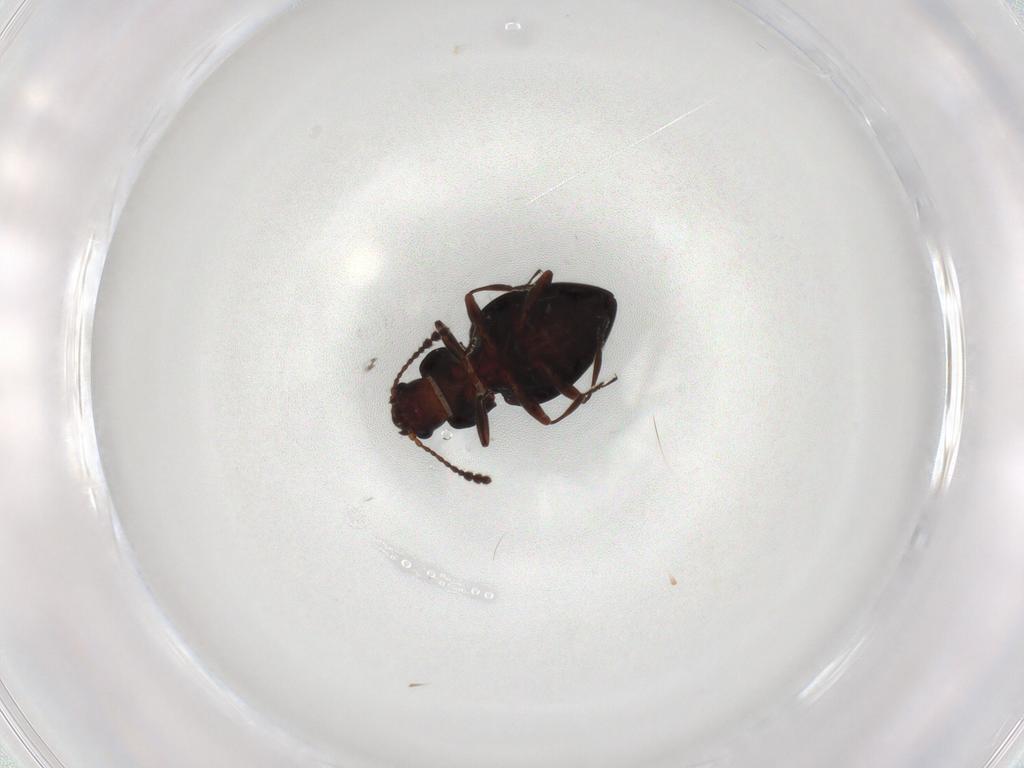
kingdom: Animalia
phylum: Arthropoda
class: Insecta
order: Coleoptera
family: Erotylidae
